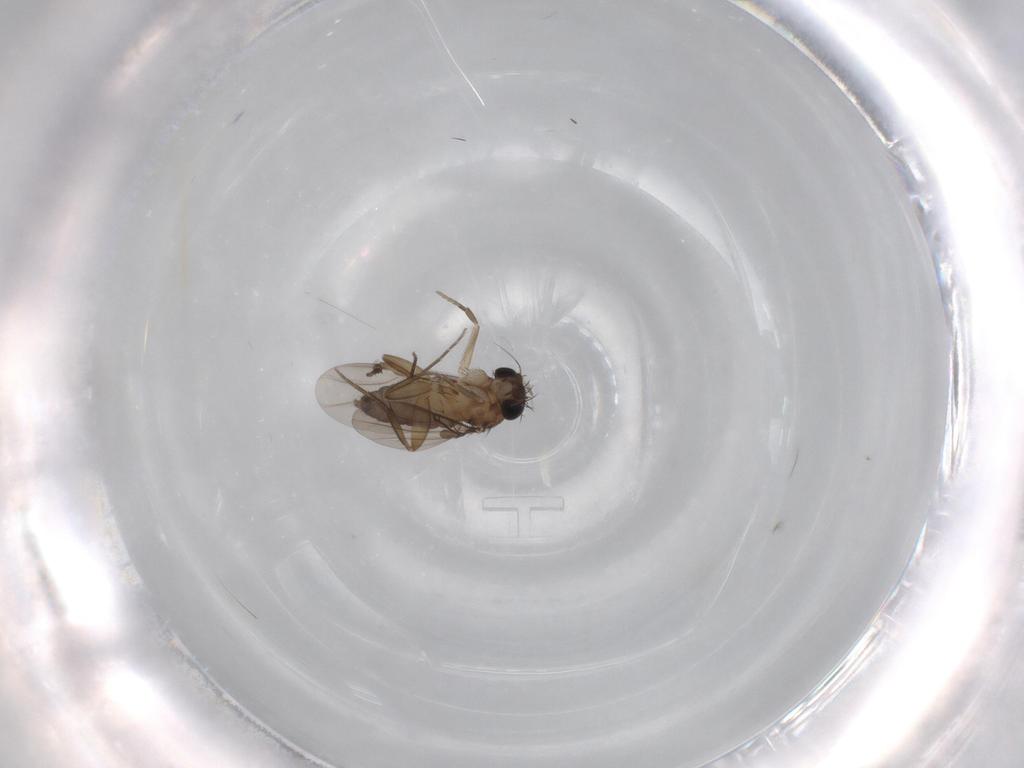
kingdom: Animalia
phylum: Arthropoda
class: Insecta
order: Diptera
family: Phoridae
